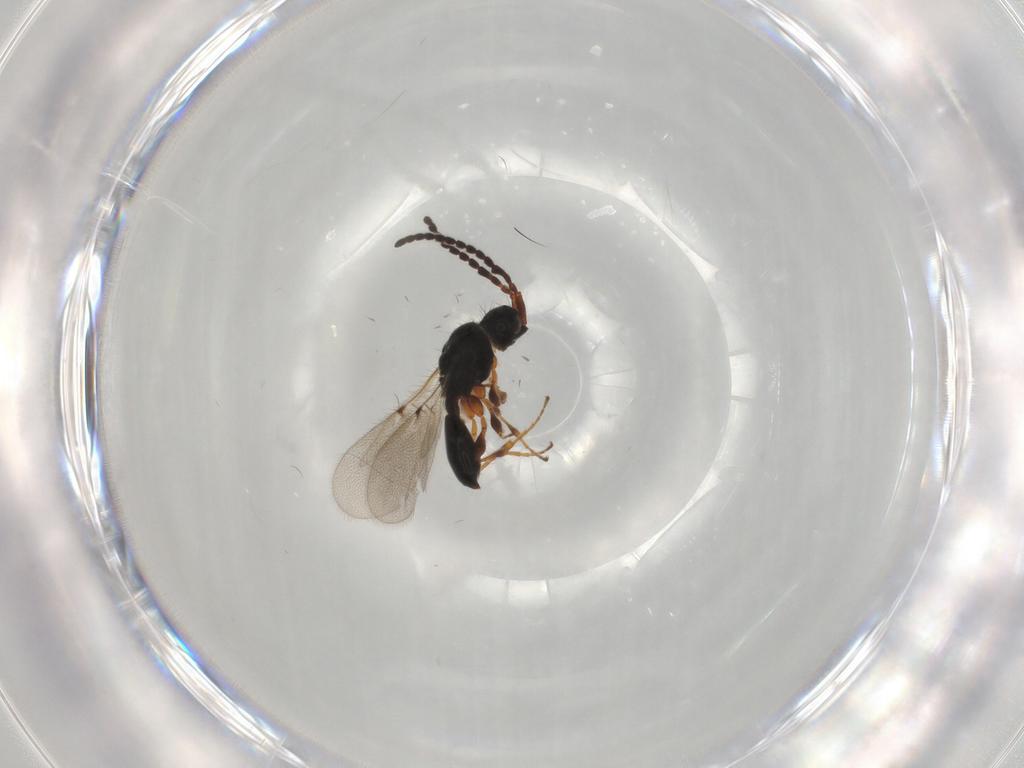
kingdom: Animalia
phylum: Arthropoda
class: Insecta
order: Hymenoptera
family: Diapriidae
